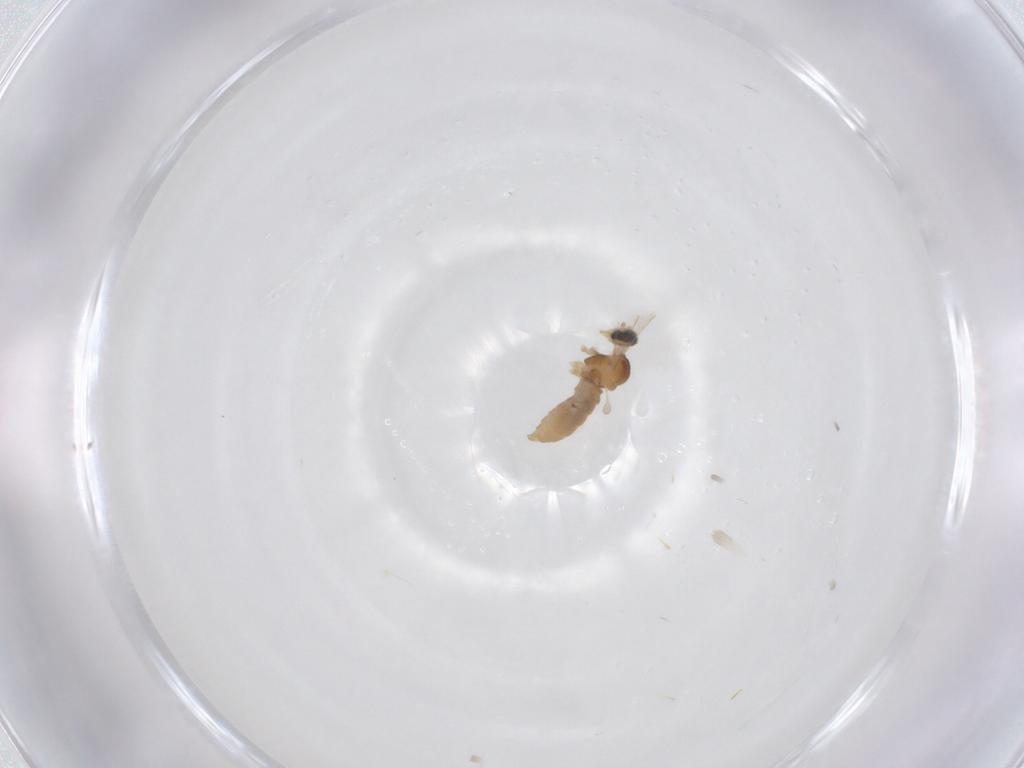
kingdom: Animalia
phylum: Arthropoda
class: Insecta
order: Diptera
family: Cecidomyiidae
